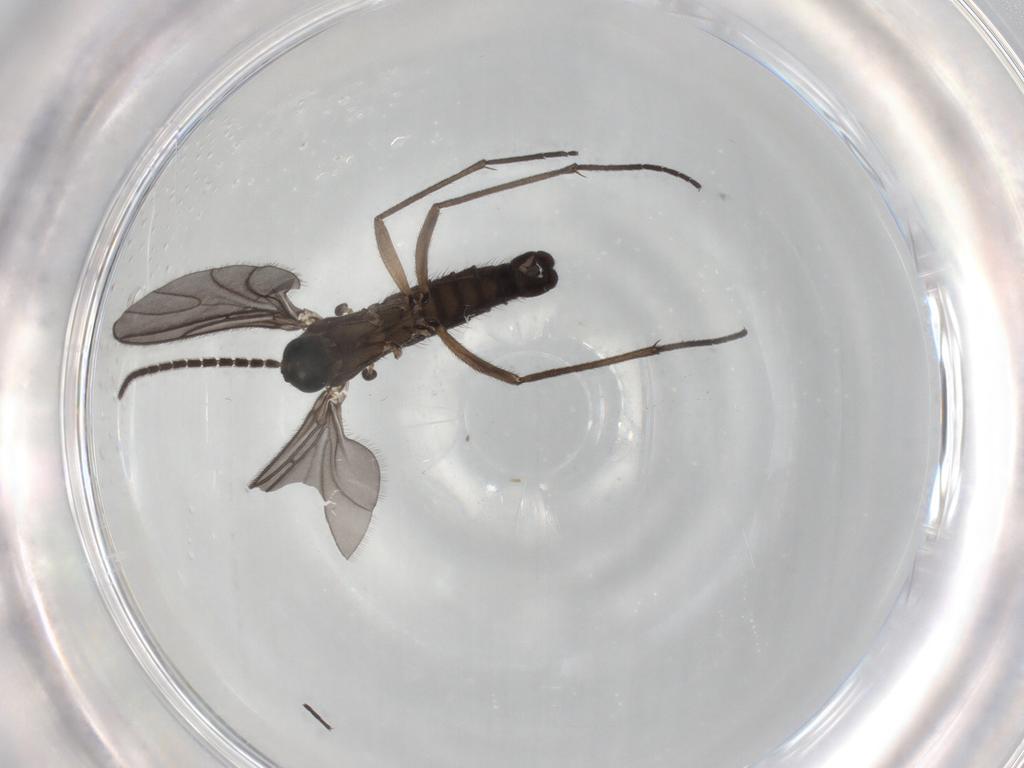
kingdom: Animalia
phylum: Arthropoda
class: Insecta
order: Diptera
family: Sciaridae
